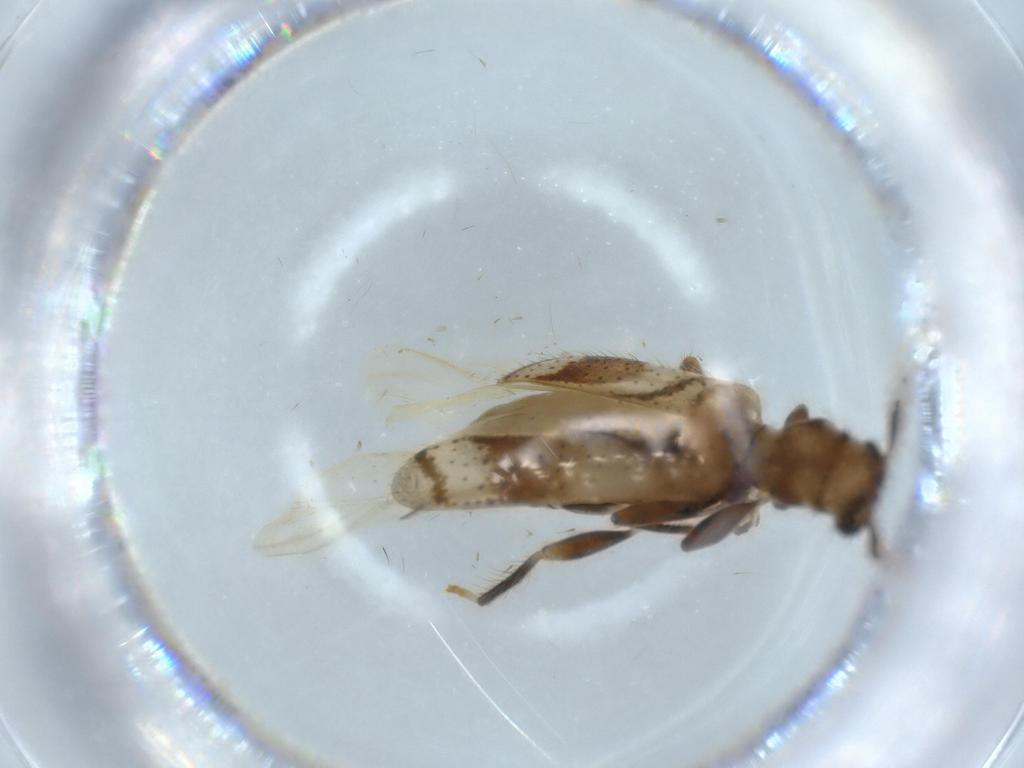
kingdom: Animalia
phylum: Arthropoda
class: Insecta
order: Coleoptera
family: Cerambycidae
